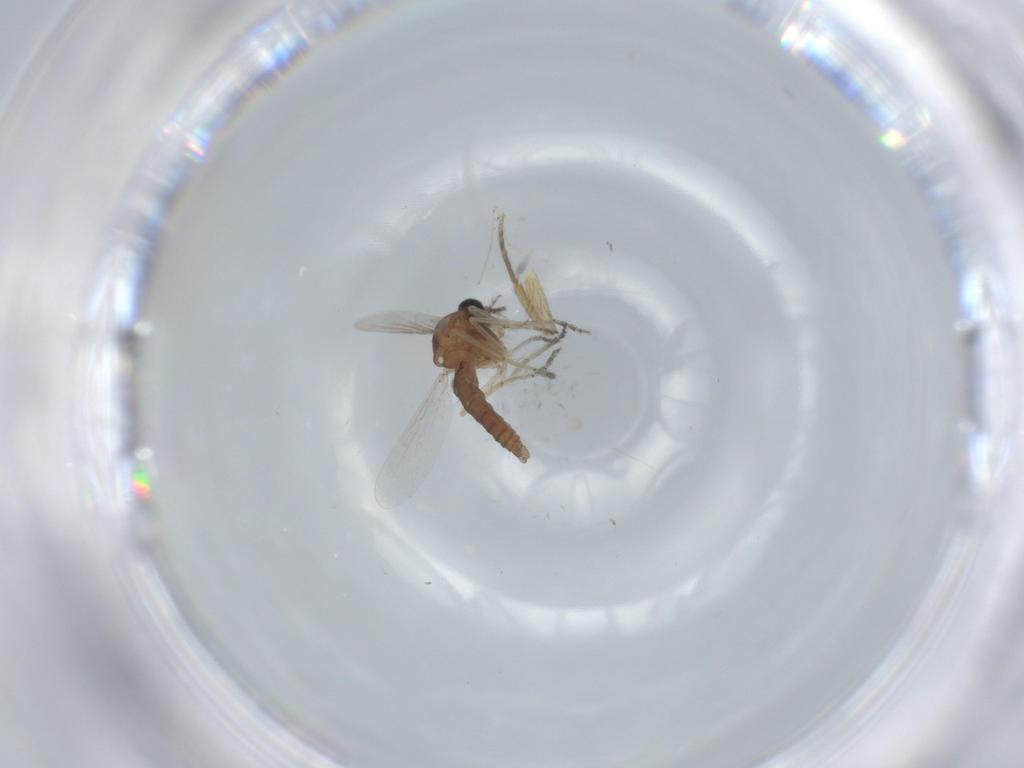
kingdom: Animalia
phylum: Arthropoda
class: Insecta
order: Diptera
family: Ceratopogonidae
